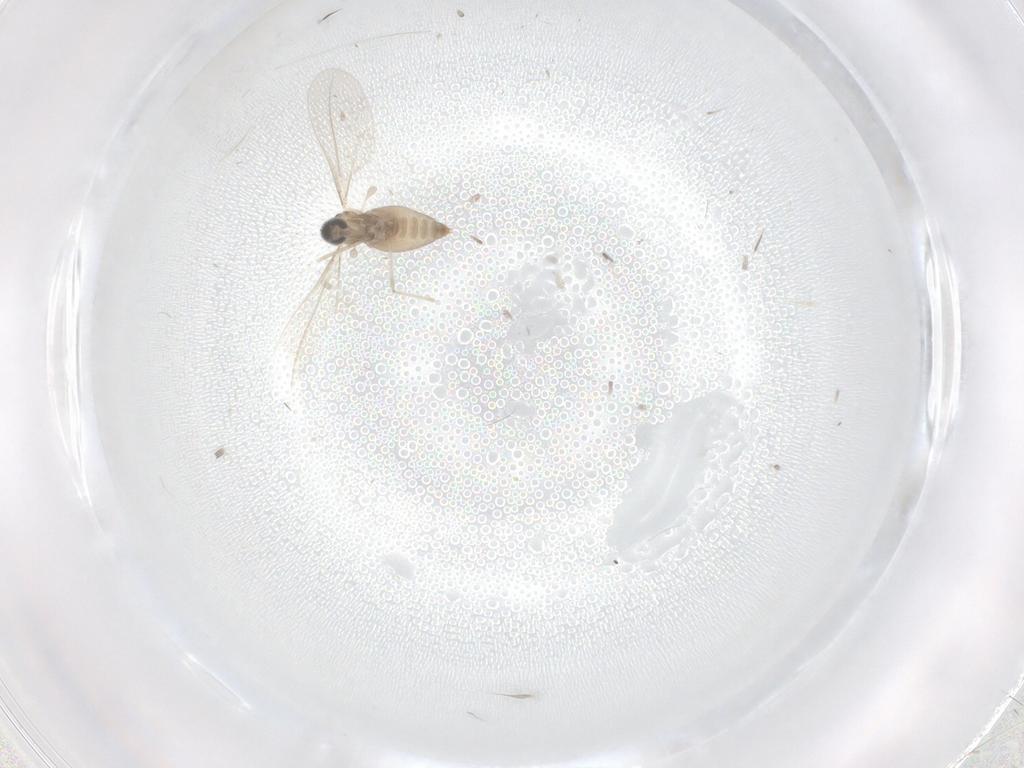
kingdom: Animalia
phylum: Arthropoda
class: Insecta
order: Diptera
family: Cecidomyiidae
